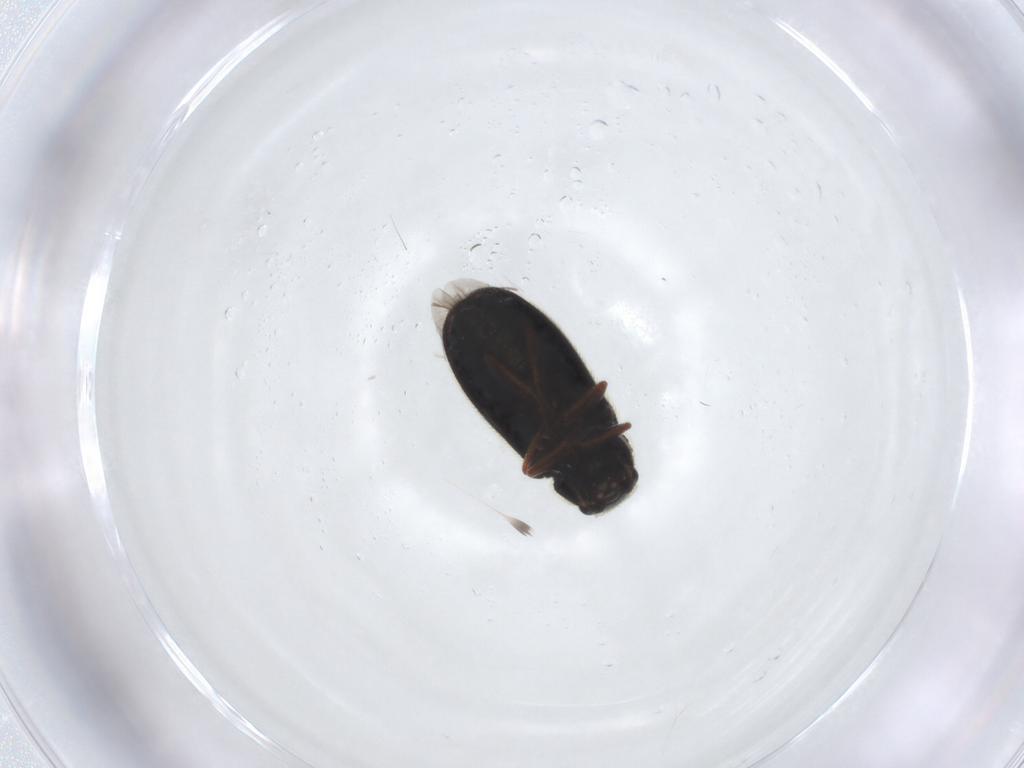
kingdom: Animalia
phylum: Arthropoda
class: Insecta
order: Coleoptera
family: Melyridae
